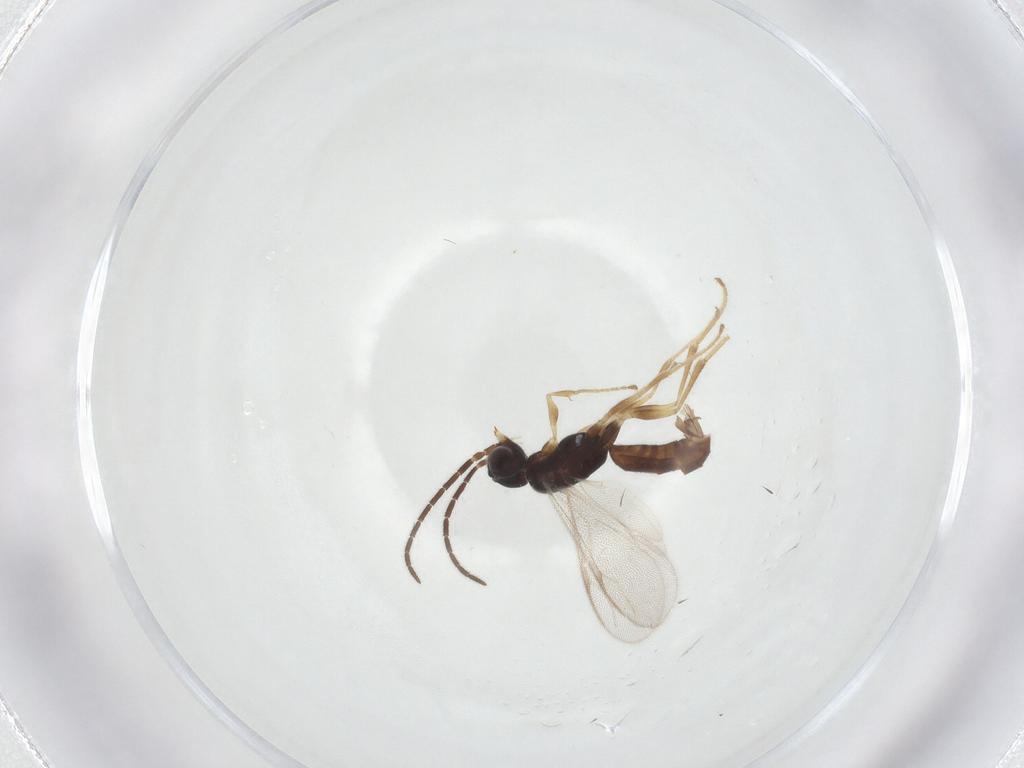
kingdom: Animalia
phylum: Arthropoda
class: Insecta
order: Hymenoptera
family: Dryinidae
